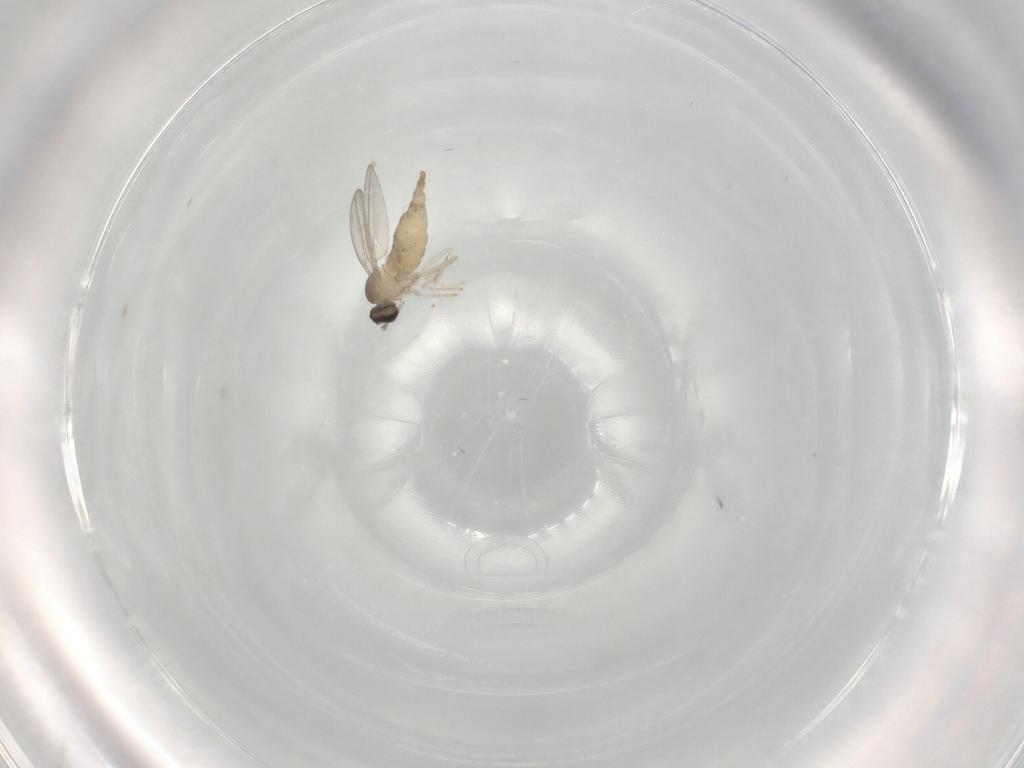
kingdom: Animalia
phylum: Arthropoda
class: Insecta
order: Diptera
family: Cecidomyiidae
